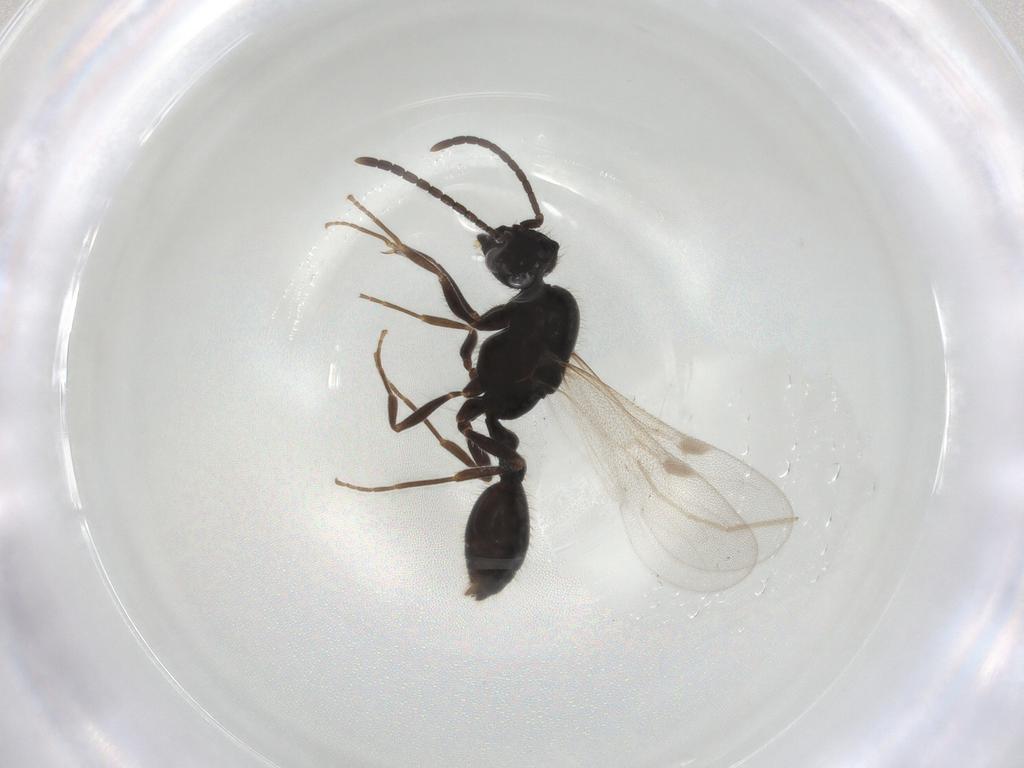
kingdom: Animalia
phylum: Arthropoda
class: Insecta
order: Hymenoptera
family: Formicidae
